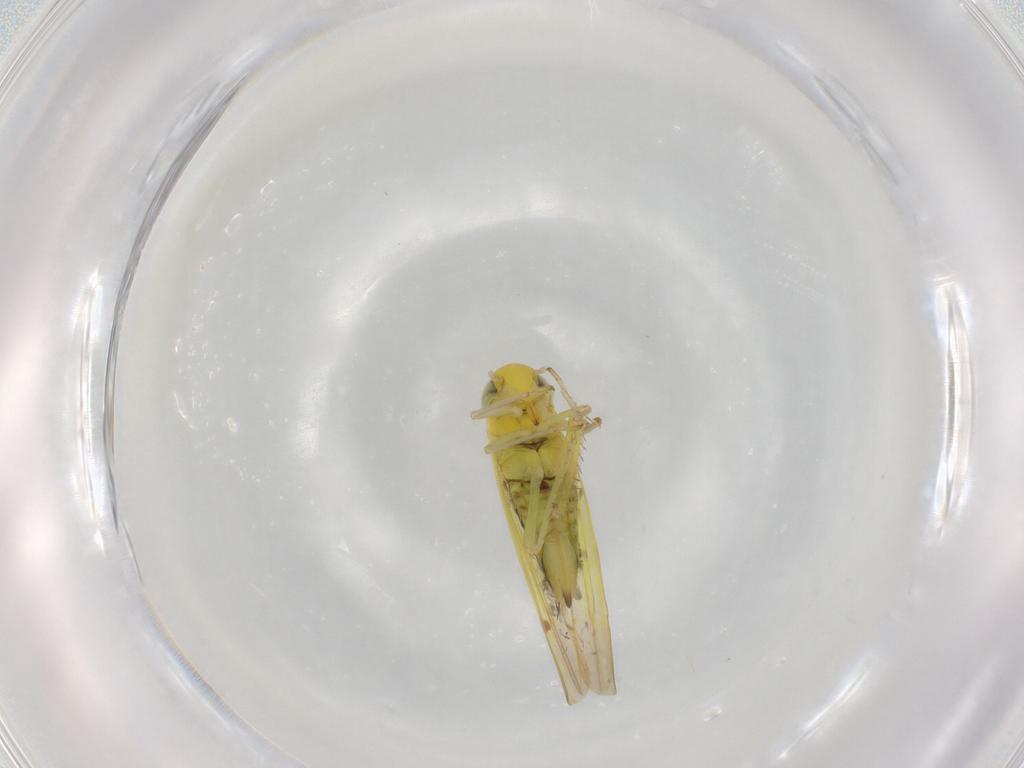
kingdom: Animalia
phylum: Arthropoda
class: Insecta
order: Hemiptera
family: Cicadellidae
